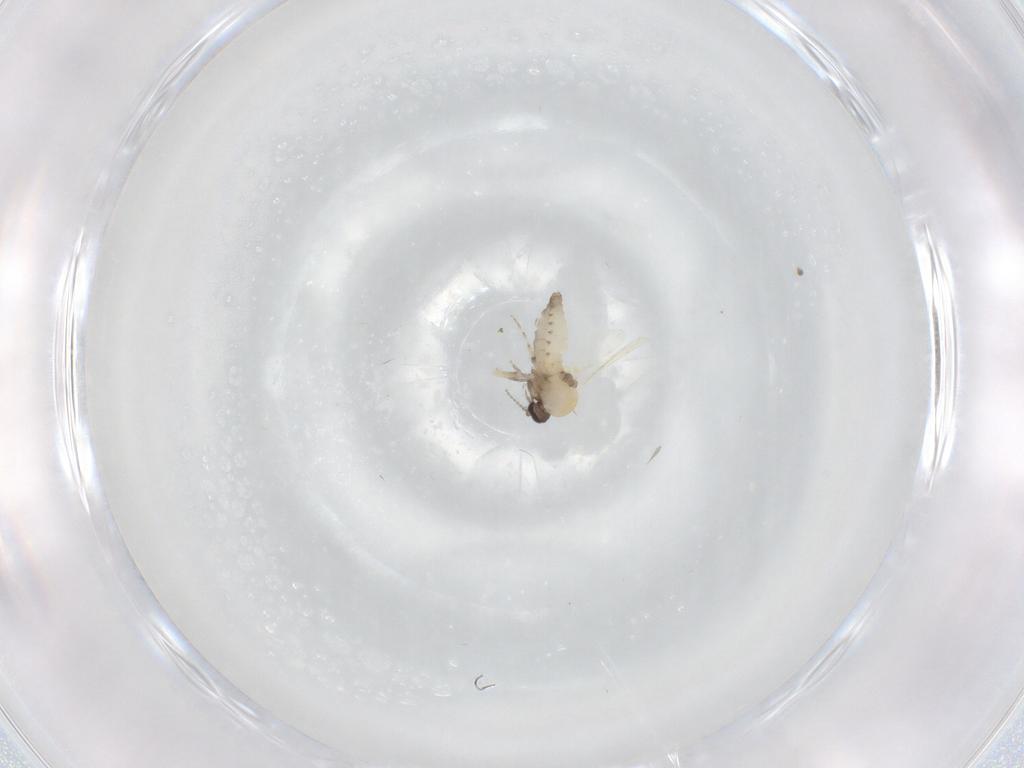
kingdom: Animalia
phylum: Arthropoda
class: Insecta
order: Diptera
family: Ceratopogonidae
